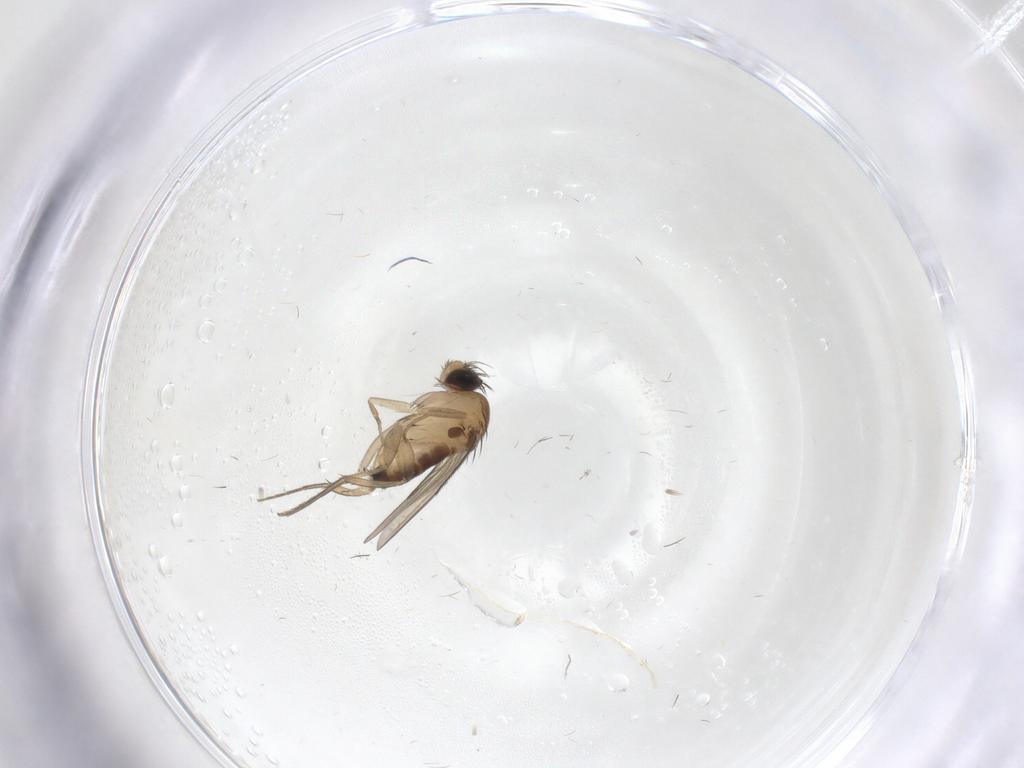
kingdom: Animalia
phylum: Arthropoda
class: Insecta
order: Diptera
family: Phoridae
